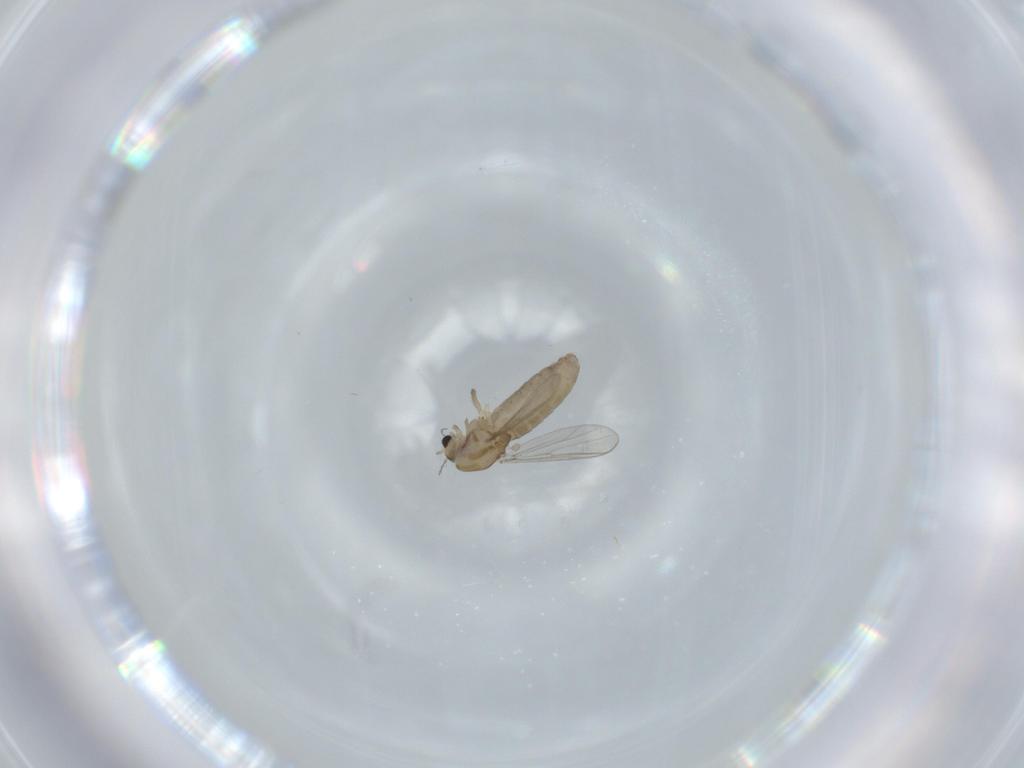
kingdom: Animalia
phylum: Arthropoda
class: Insecta
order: Diptera
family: Chironomidae
